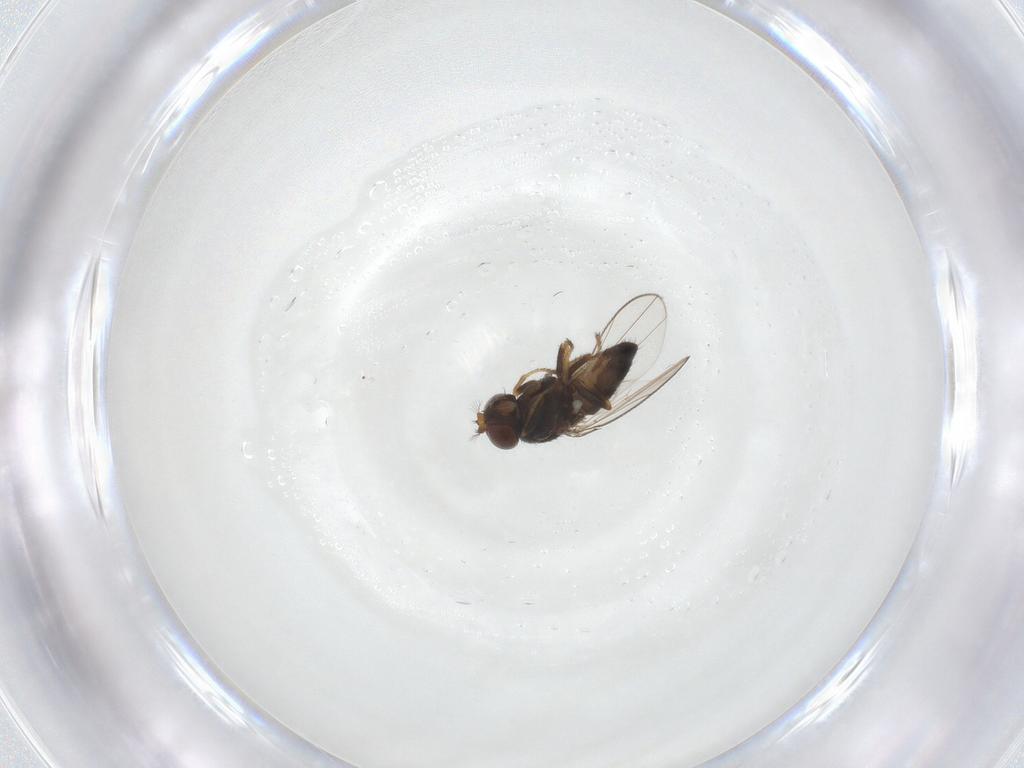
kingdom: Animalia
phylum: Arthropoda
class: Insecta
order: Diptera
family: Ephydridae
